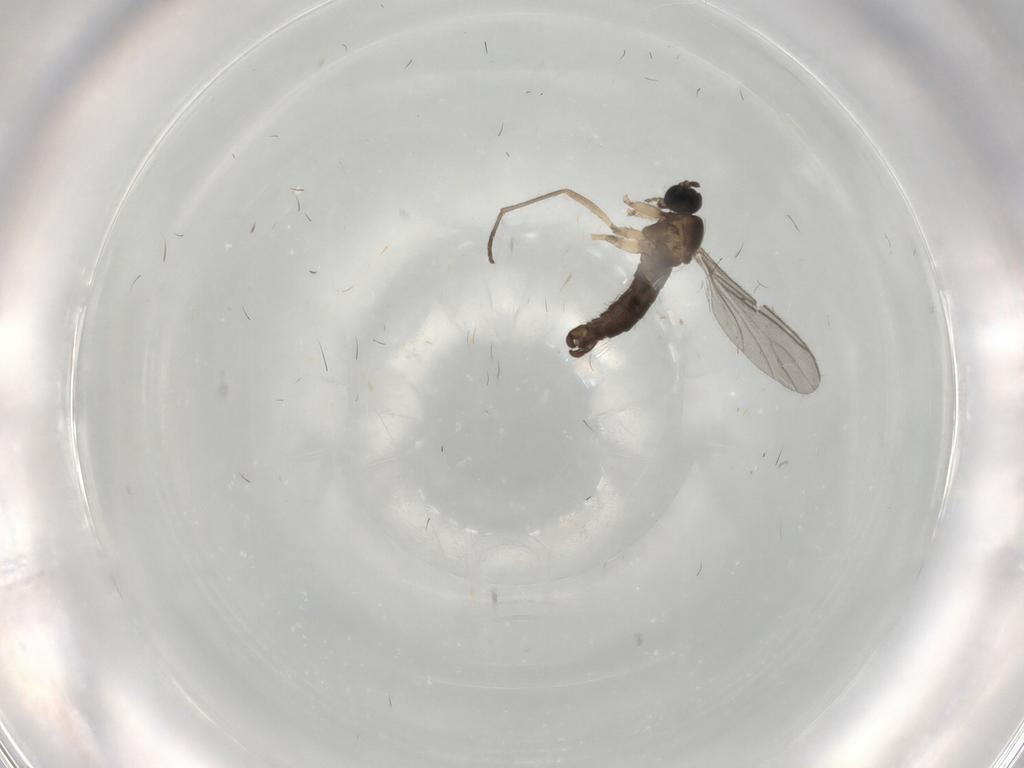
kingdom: Animalia
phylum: Arthropoda
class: Insecta
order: Diptera
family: Sciaridae
